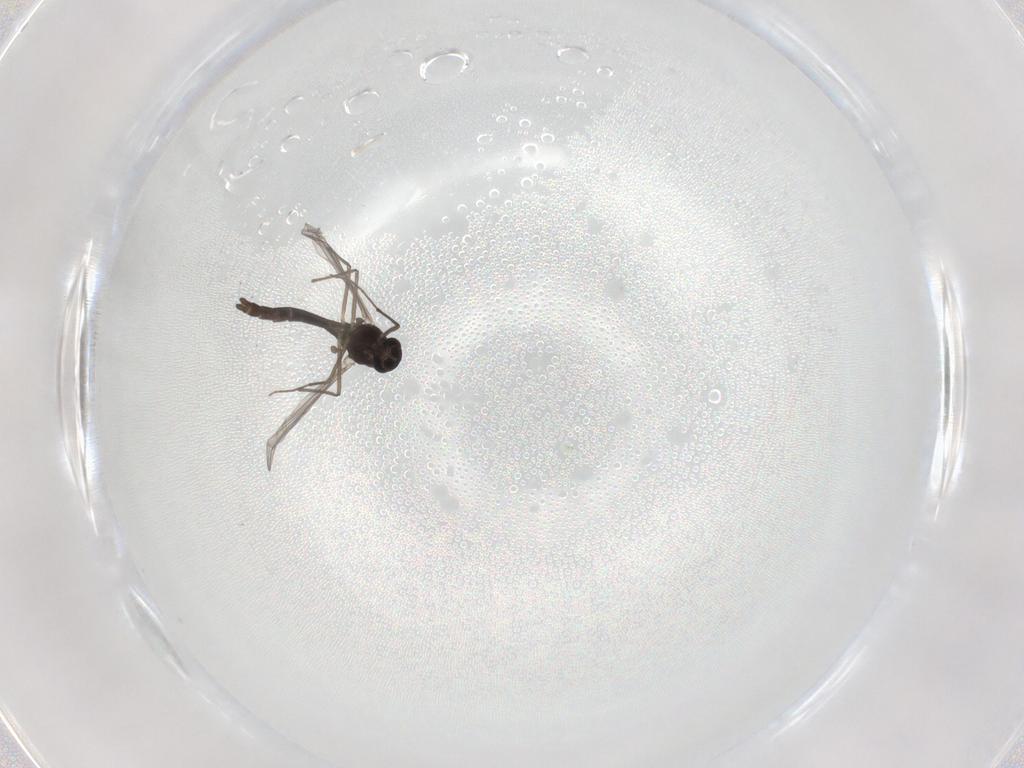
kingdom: Animalia
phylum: Arthropoda
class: Insecta
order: Diptera
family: Chironomidae
